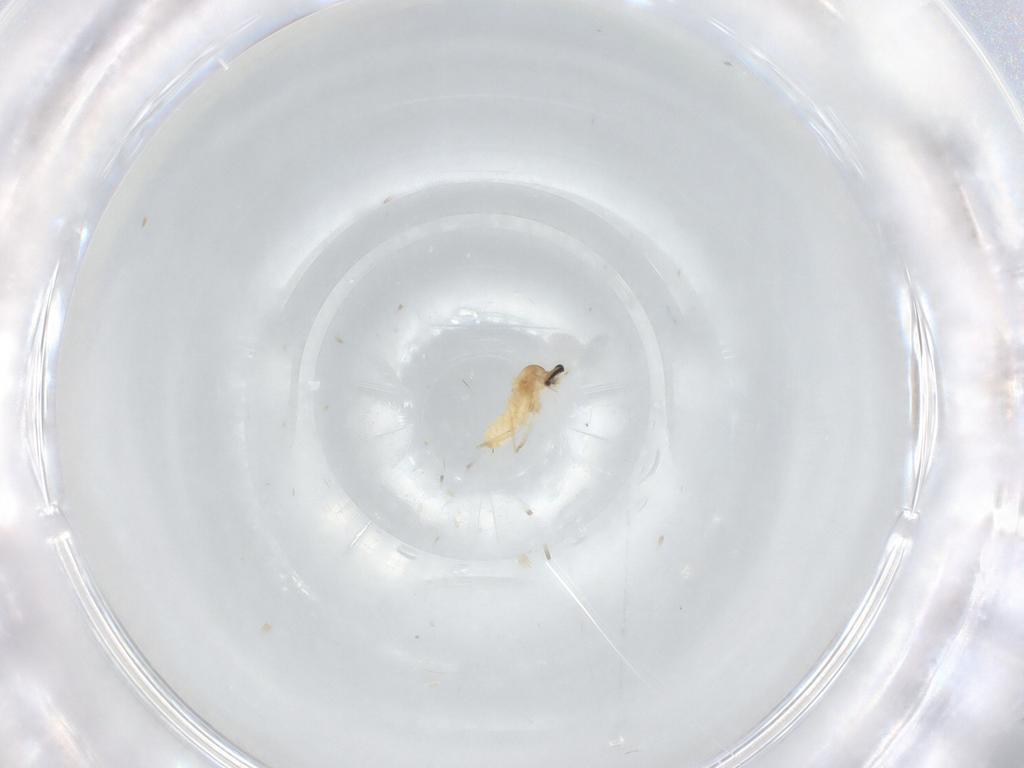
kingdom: Animalia
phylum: Arthropoda
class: Insecta
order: Diptera
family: Cecidomyiidae
